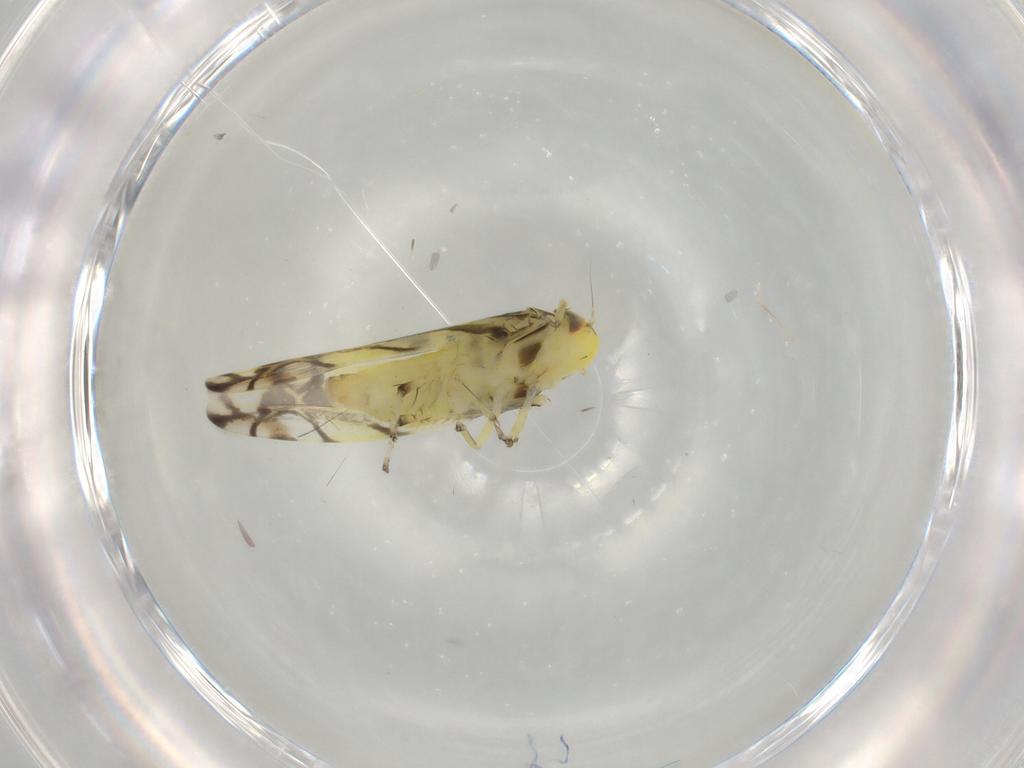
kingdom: Animalia
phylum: Arthropoda
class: Insecta
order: Hemiptera
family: Cicadellidae
